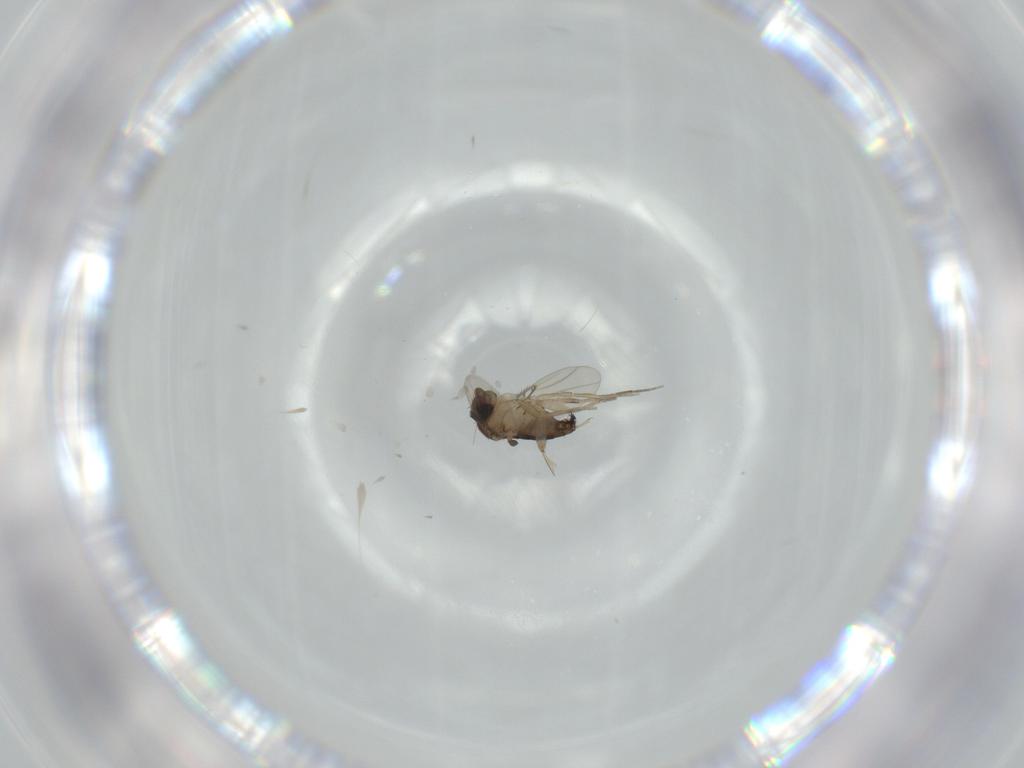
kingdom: Animalia
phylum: Arthropoda
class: Insecta
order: Diptera
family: Phoridae
